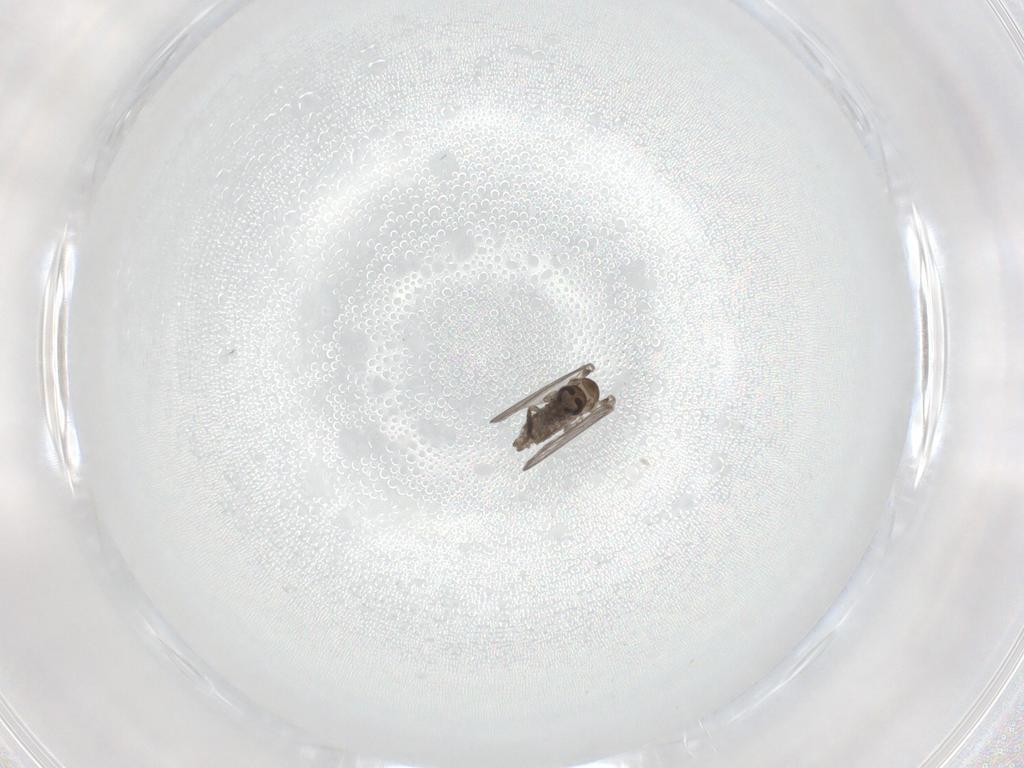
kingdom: Animalia
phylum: Arthropoda
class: Insecta
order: Diptera
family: Psychodidae
